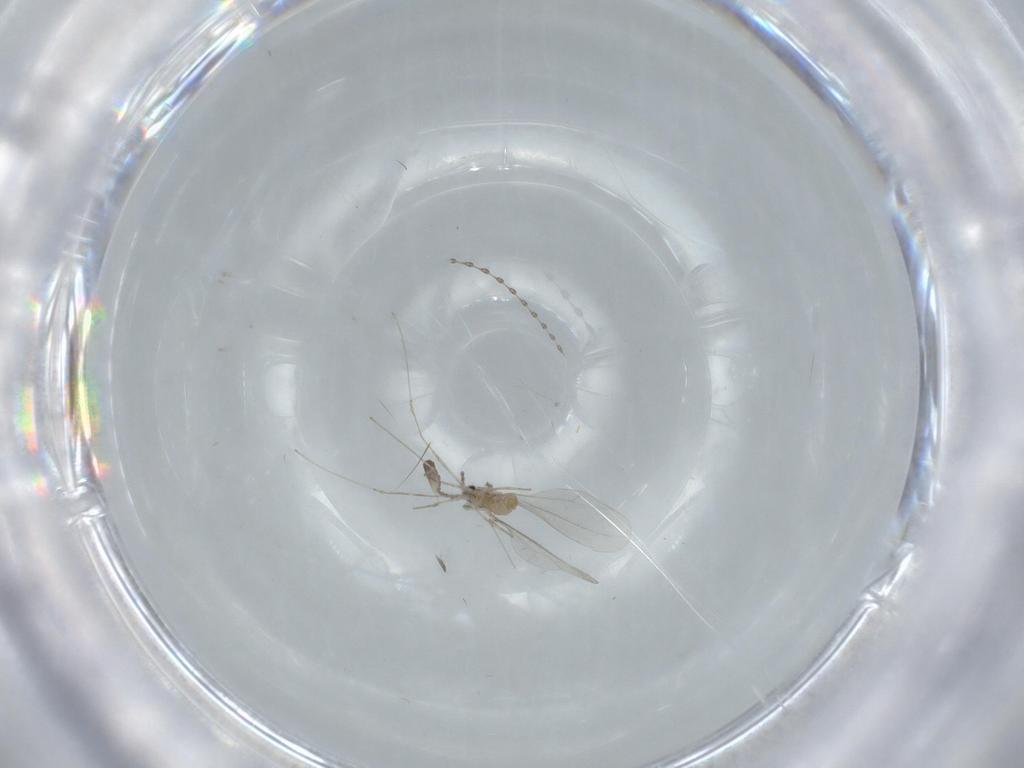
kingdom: Animalia
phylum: Arthropoda
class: Insecta
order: Diptera
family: Cecidomyiidae
